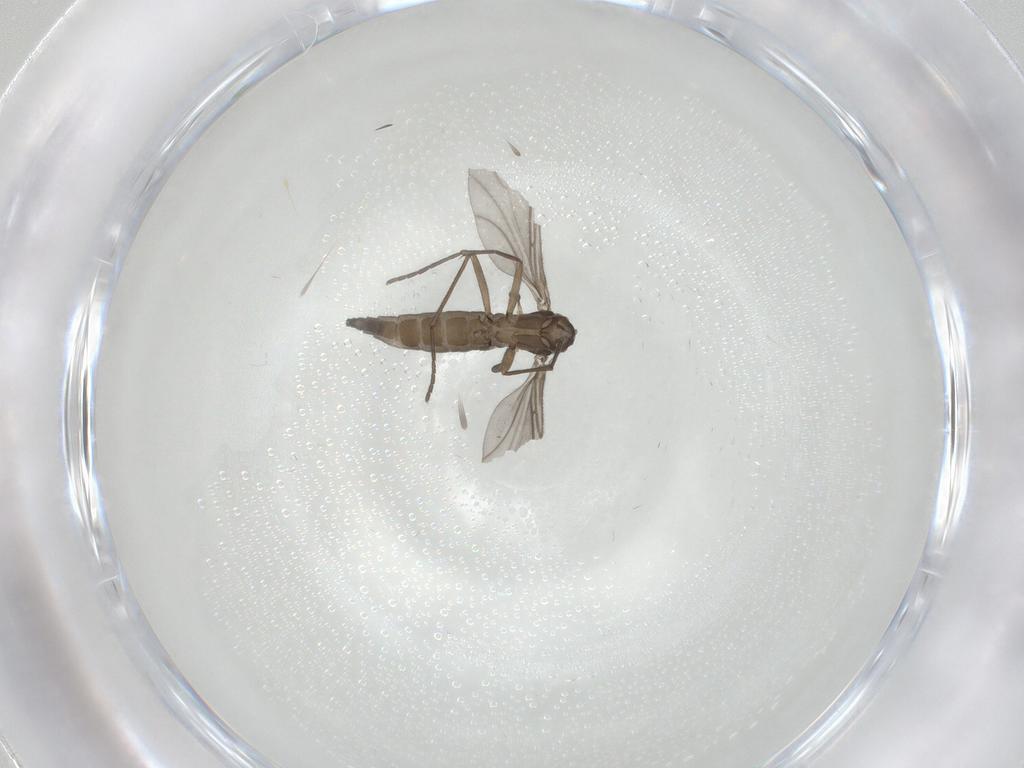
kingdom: Animalia
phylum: Arthropoda
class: Insecta
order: Diptera
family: Sciaridae
